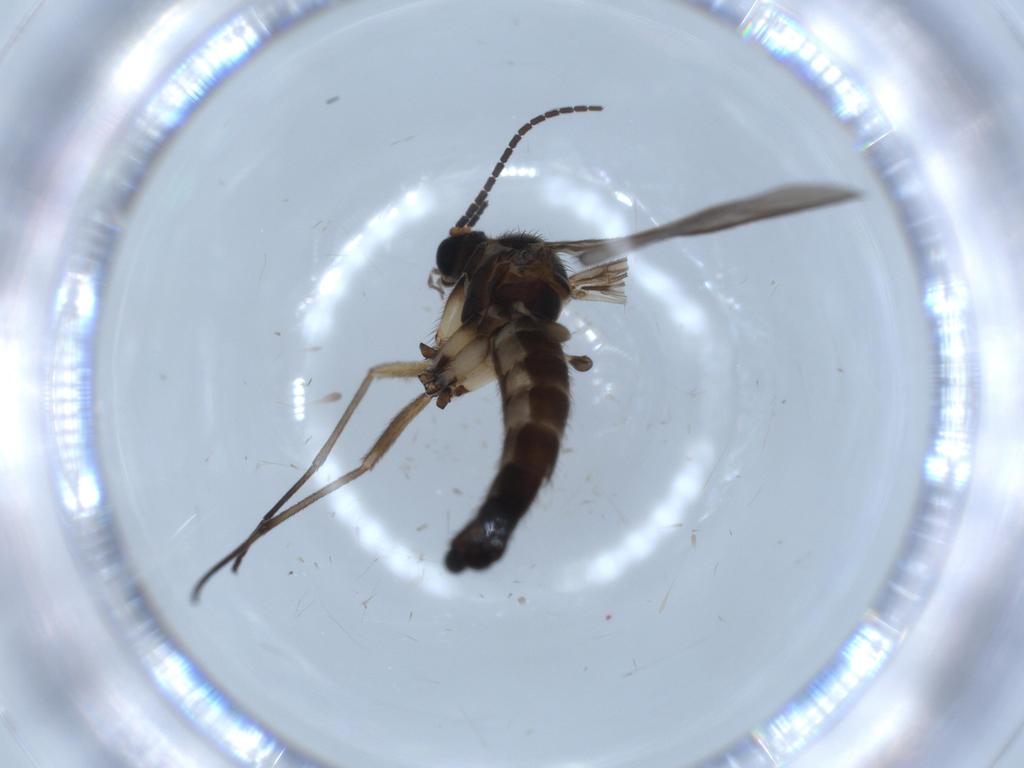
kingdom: Animalia
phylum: Arthropoda
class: Insecta
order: Diptera
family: Sciaridae
